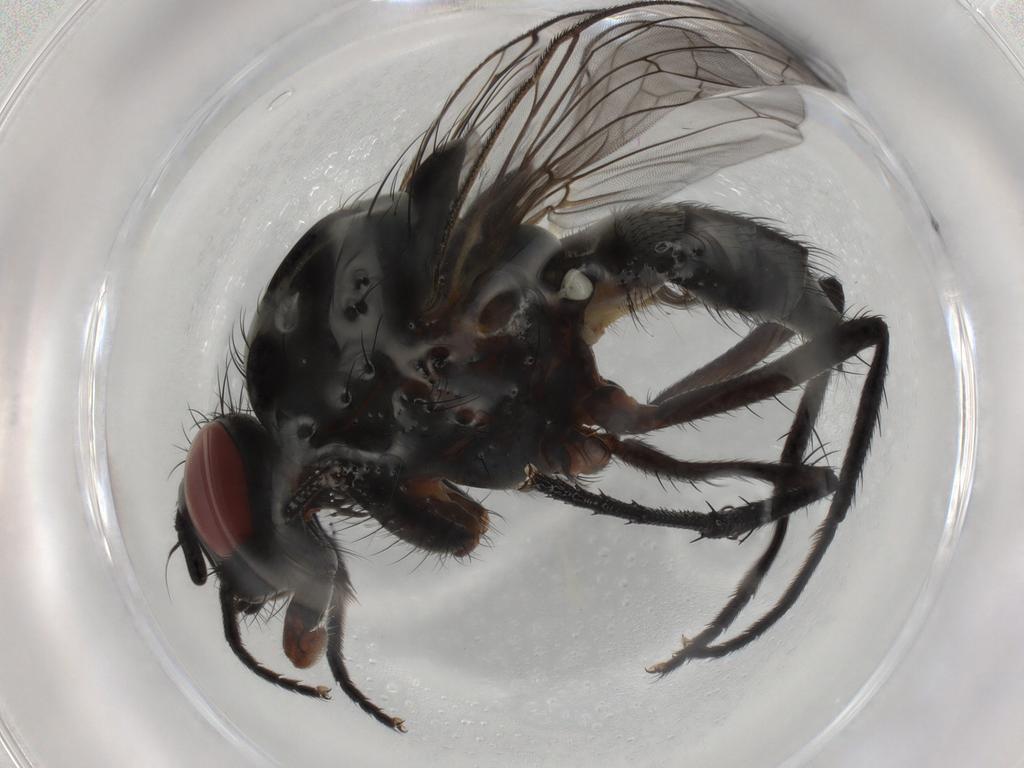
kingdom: Animalia
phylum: Arthropoda
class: Insecta
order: Diptera
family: Anthomyiidae
